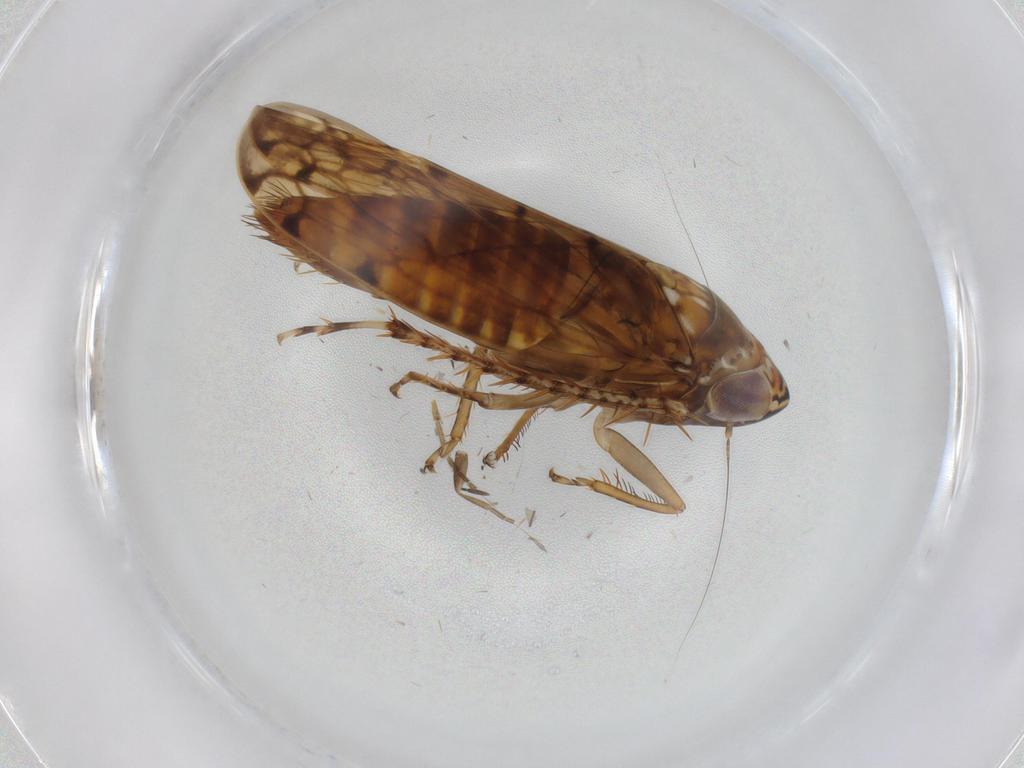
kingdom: Animalia
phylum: Arthropoda
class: Insecta
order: Hemiptera
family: Cicadellidae
